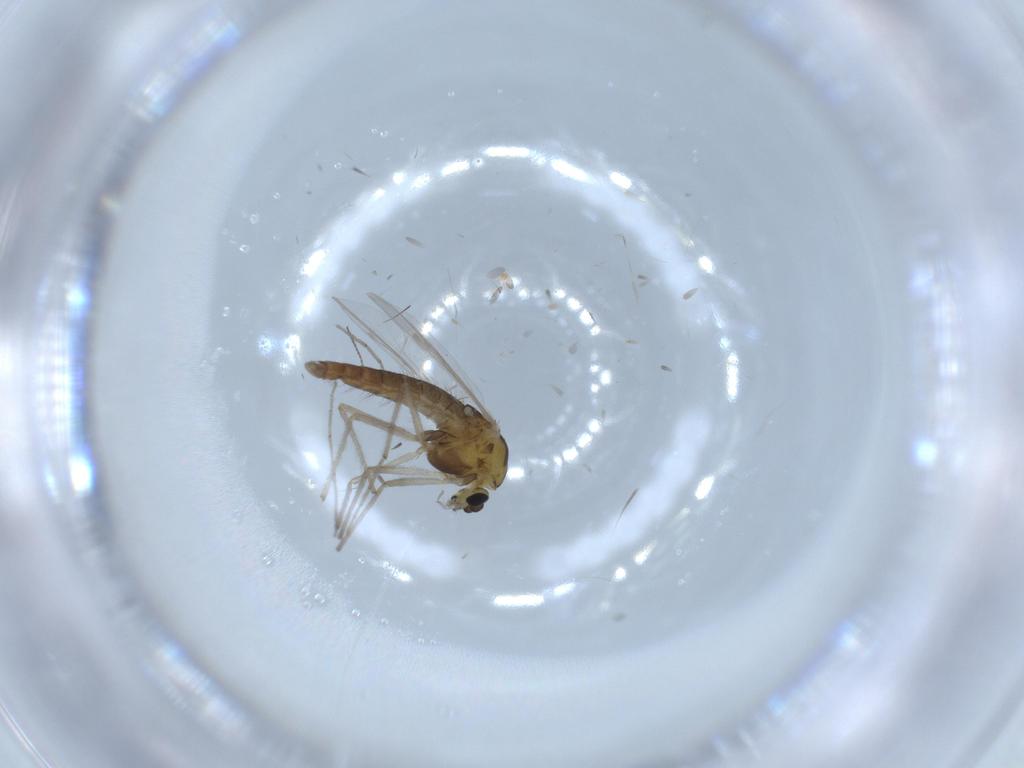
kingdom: Animalia
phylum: Arthropoda
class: Insecta
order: Diptera
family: Chironomidae
